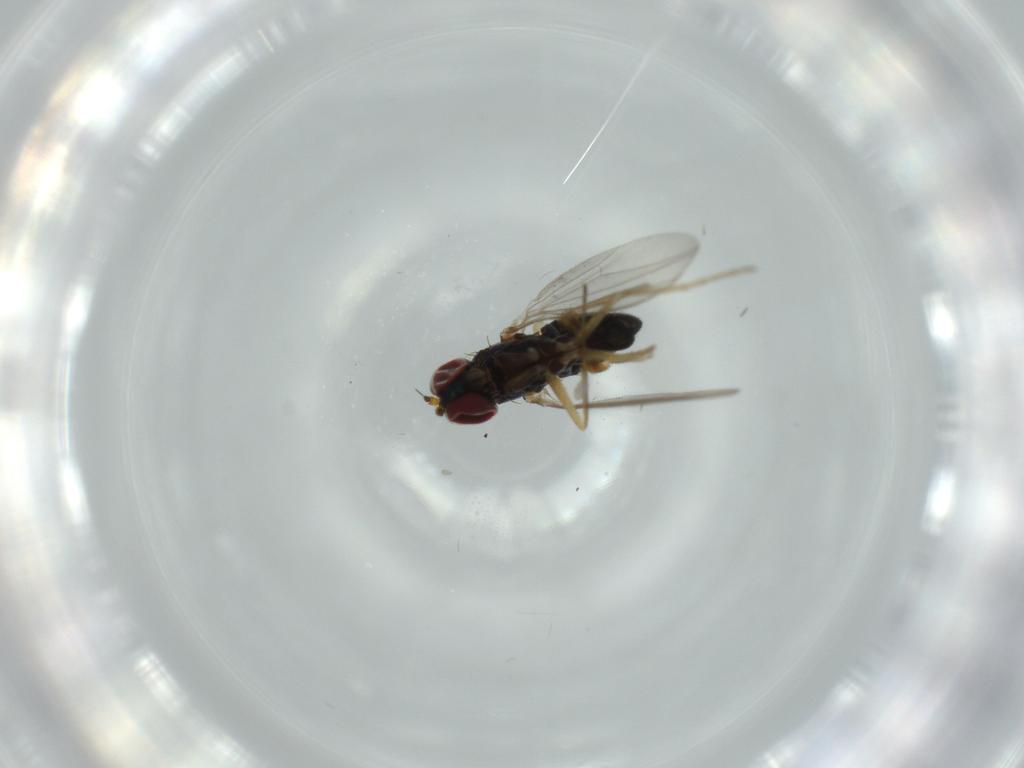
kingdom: Animalia
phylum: Arthropoda
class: Insecta
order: Diptera
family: Dolichopodidae
